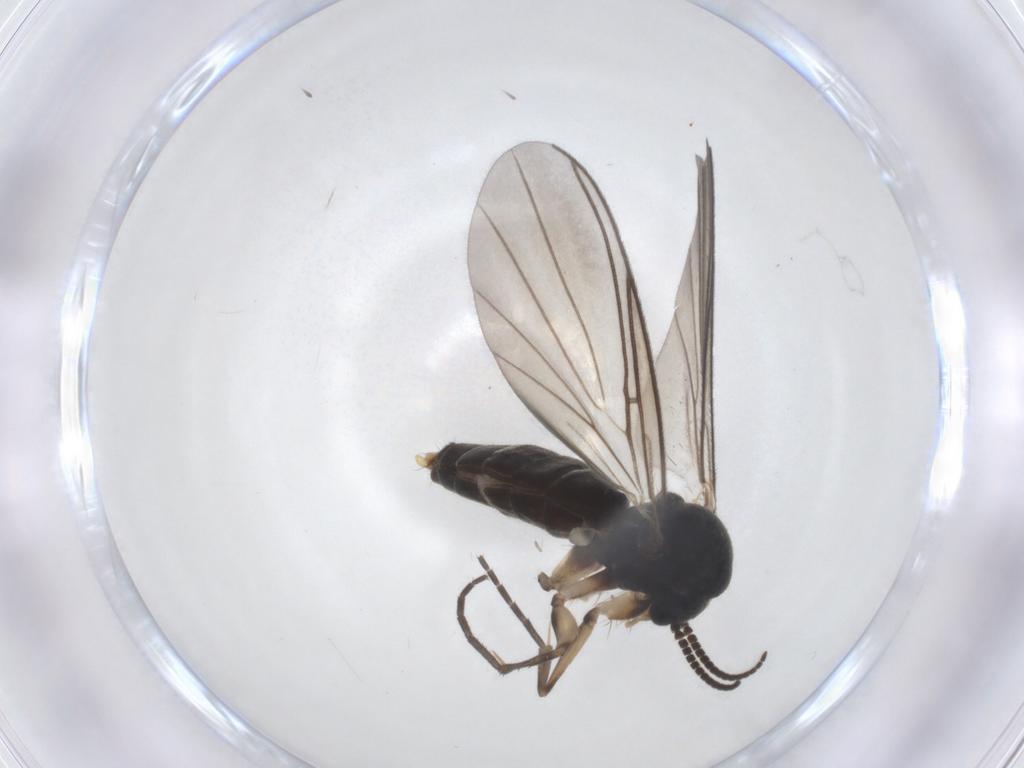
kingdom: Animalia
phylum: Arthropoda
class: Insecta
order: Diptera
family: Mycetophilidae
